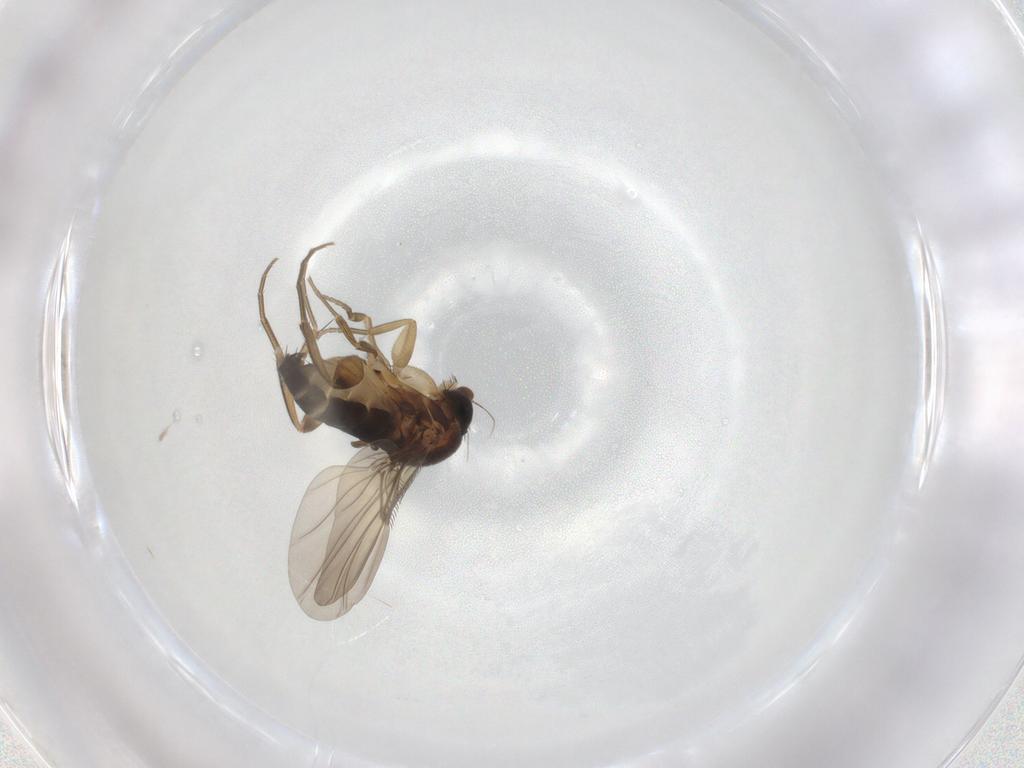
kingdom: Animalia
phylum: Arthropoda
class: Insecta
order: Diptera
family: Phoridae
